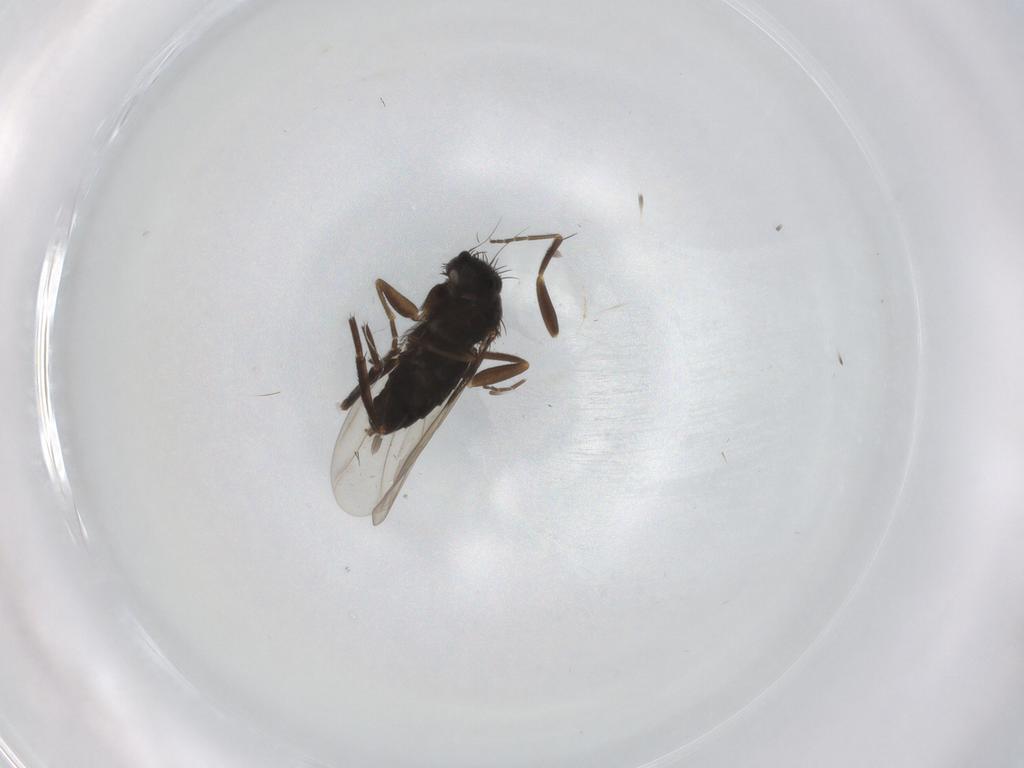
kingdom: Animalia
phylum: Arthropoda
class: Insecta
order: Diptera
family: Phoridae
